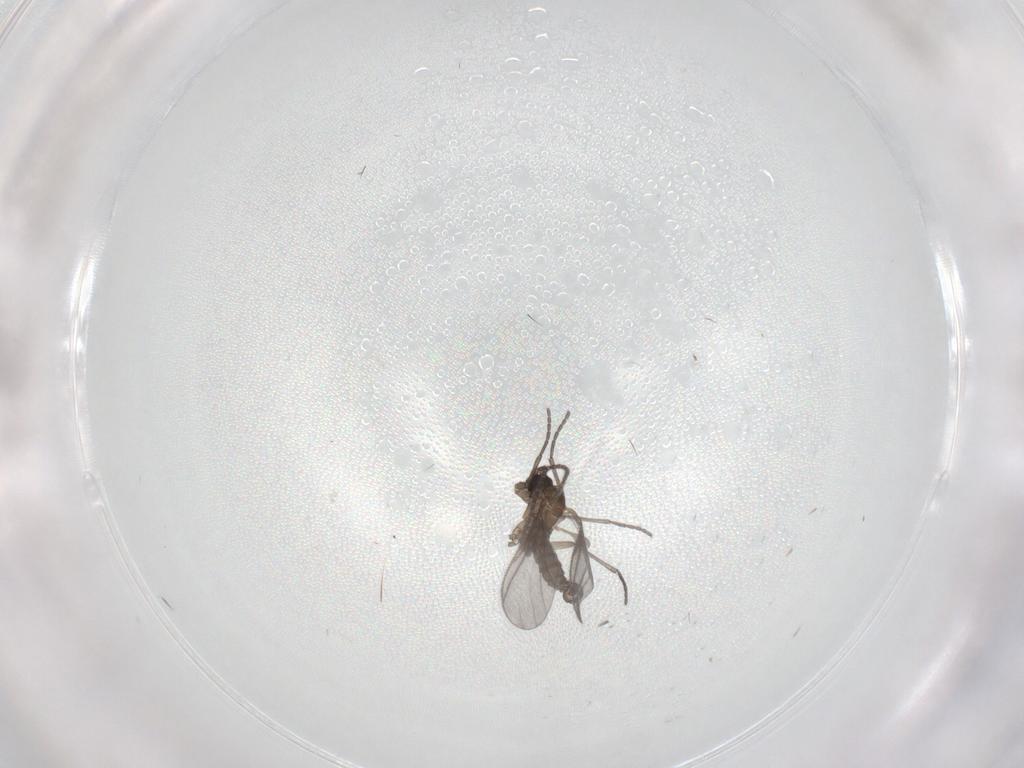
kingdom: Animalia
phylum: Arthropoda
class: Insecta
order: Diptera
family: Sciaridae
